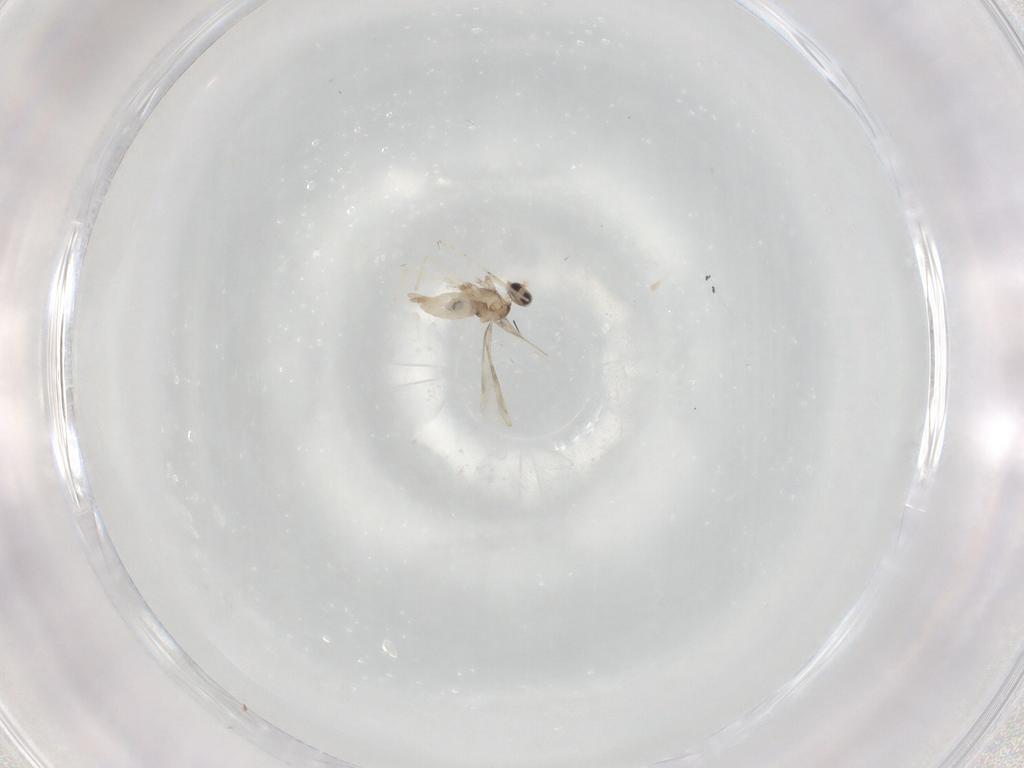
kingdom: Animalia
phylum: Arthropoda
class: Insecta
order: Diptera
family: Cecidomyiidae
